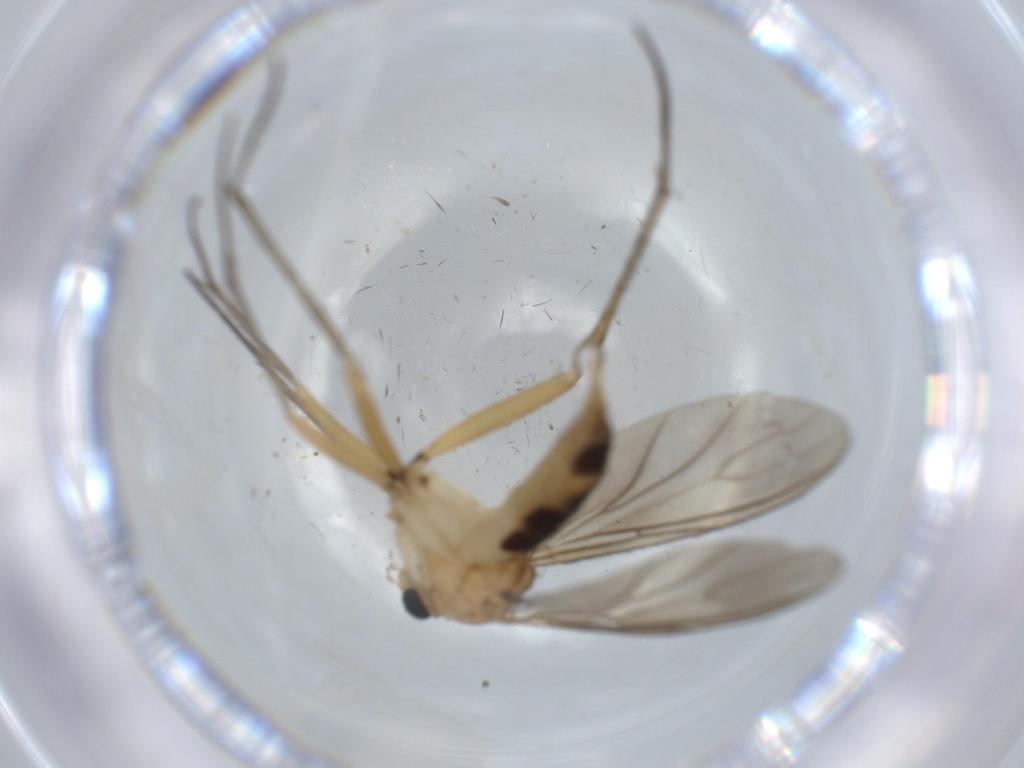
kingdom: Animalia
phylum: Arthropoda
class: Insecta
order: Diptera
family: Sciaridae
